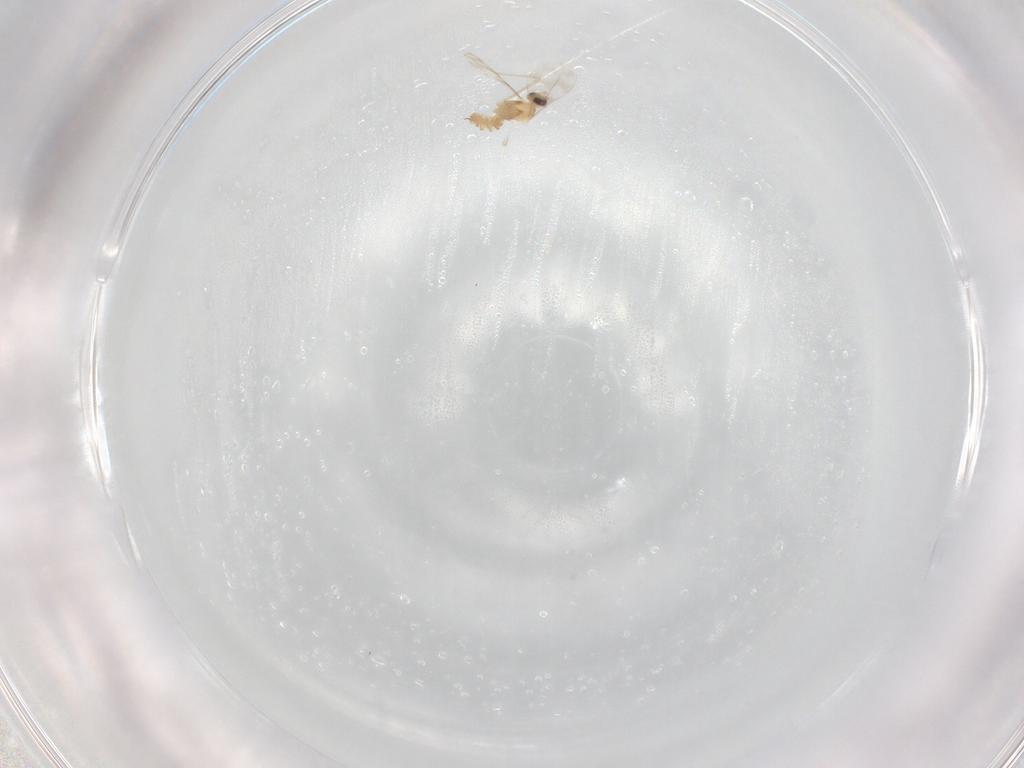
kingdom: Animalia
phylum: Arthropoda
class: Insecta
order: Diptera
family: Cecidomyiidae
